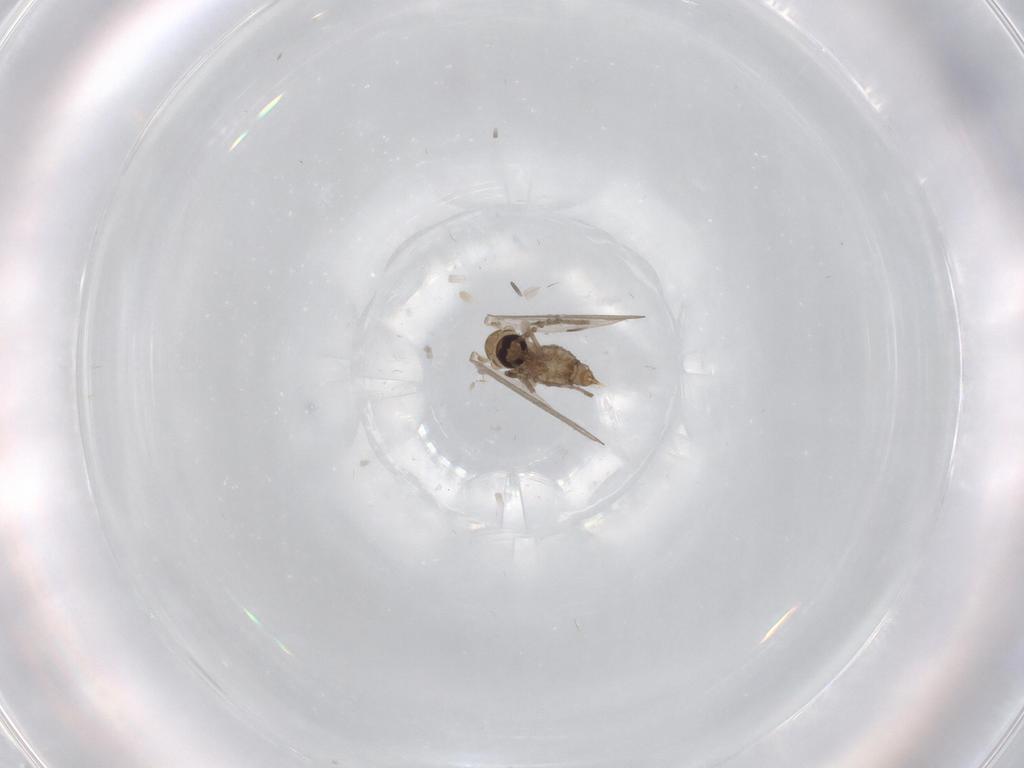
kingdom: Animalia
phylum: Arthropoda
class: Insecta
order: Diptera
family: Psychodidae
